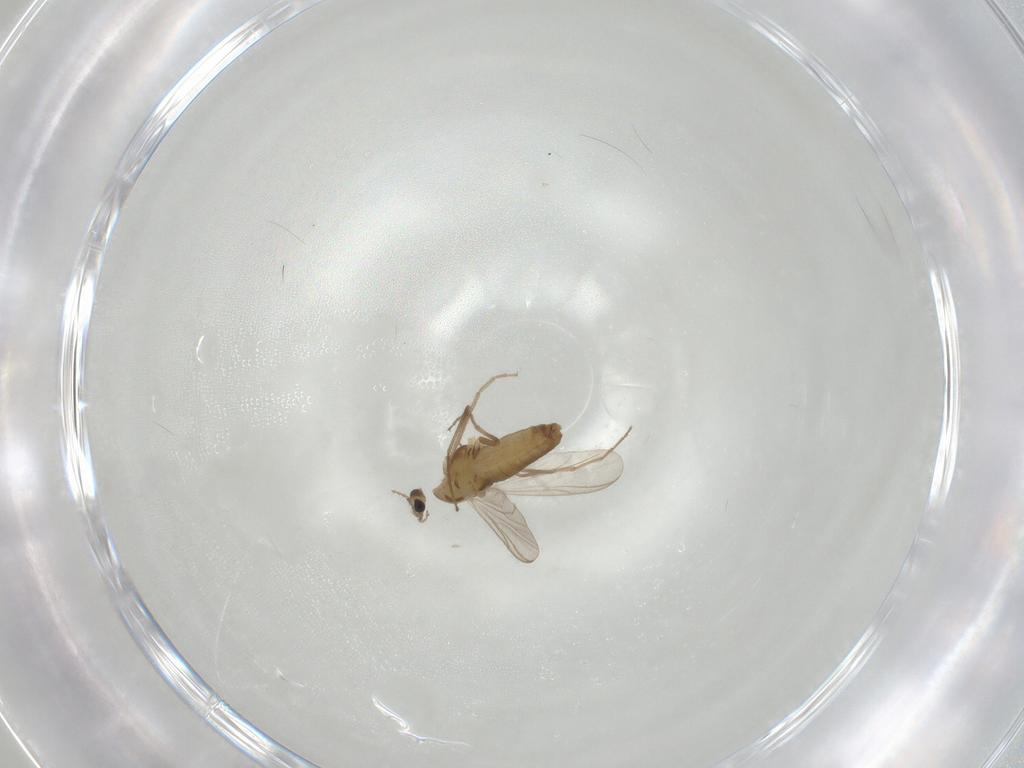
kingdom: Animalia
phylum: Arthropoda
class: Insecta
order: Diptera
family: Chironomidae
